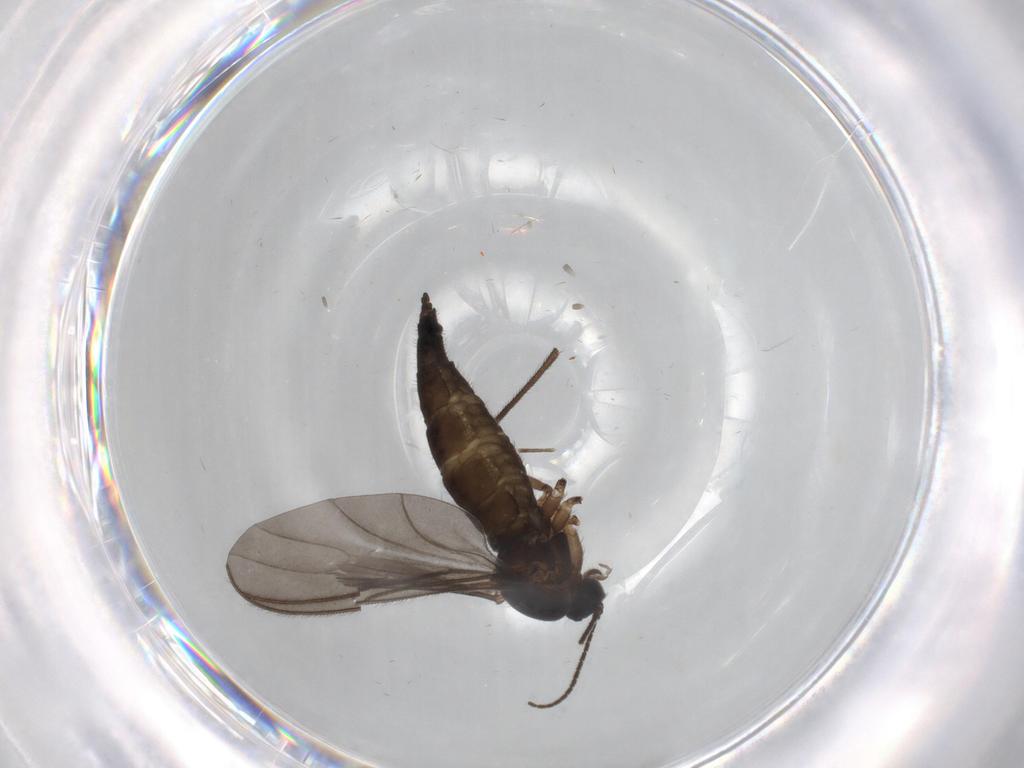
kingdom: Animalia
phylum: Arthropoda
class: Insecta
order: Diptera
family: Sciaridae
